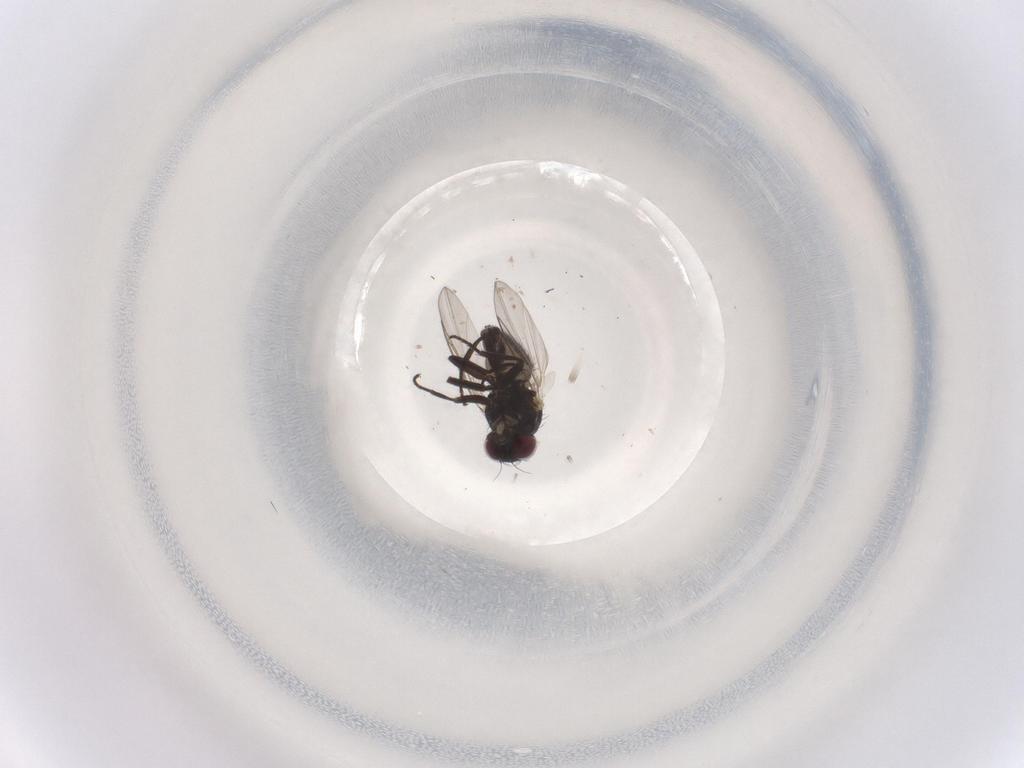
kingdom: Animalia
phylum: Arthropoda
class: Insecta
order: Diptera
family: Agromyzidae
